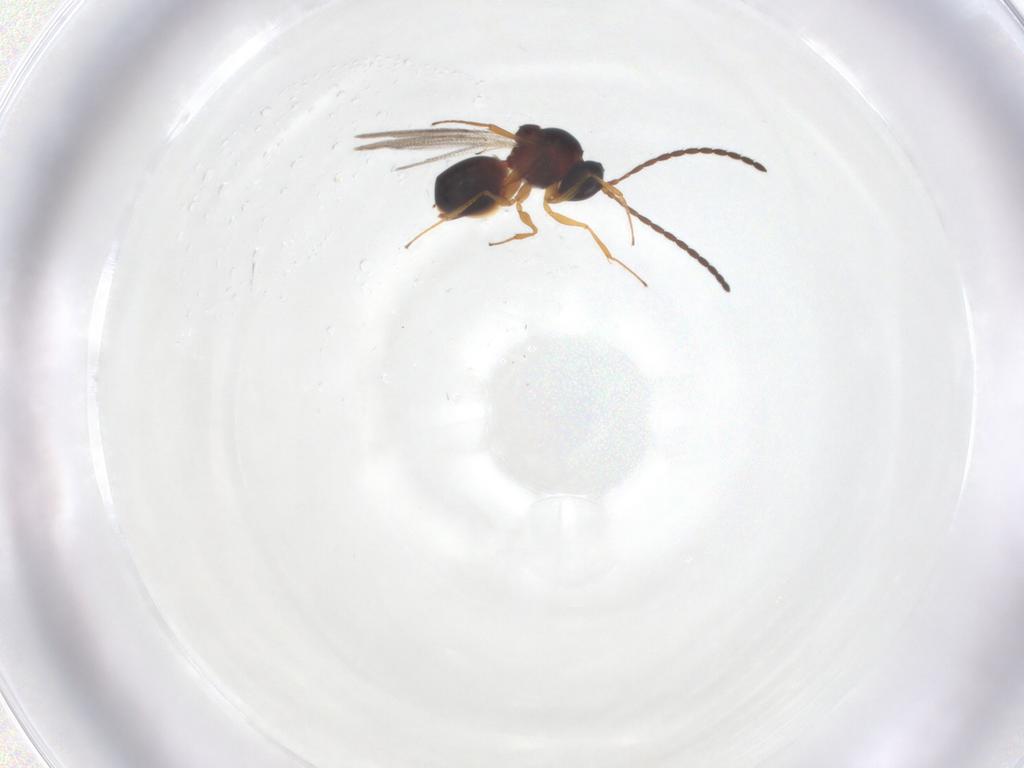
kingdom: Animalia
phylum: Arthropoda
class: Insecta
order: Hymenoptera
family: Figitidae
